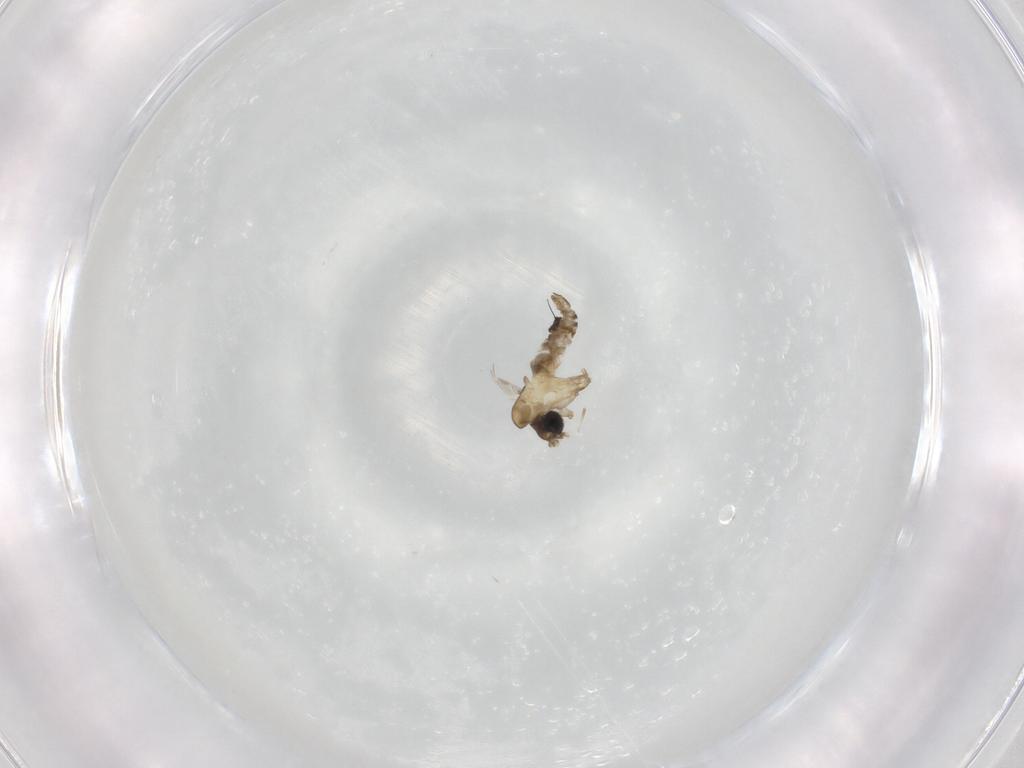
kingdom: Animalia
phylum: Arthropoda
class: Insecta
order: Diptera
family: Psychodidae
